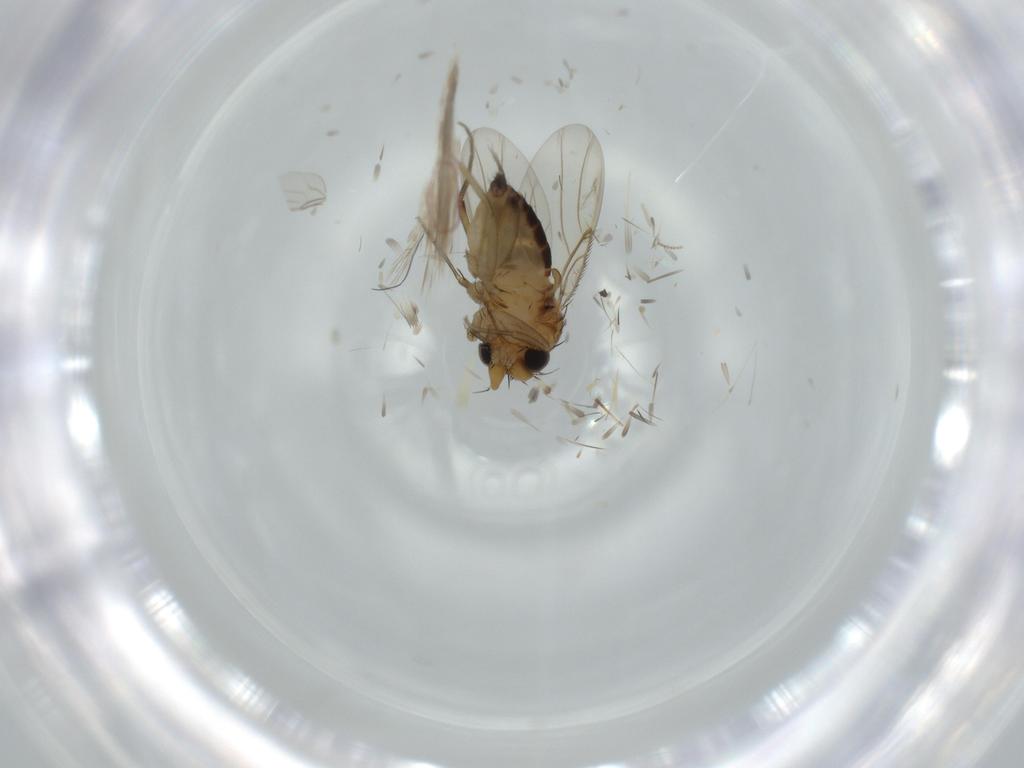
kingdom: Animalia
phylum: Arthropoda
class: Insecta
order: Diptera
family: Cecidomyiidae
